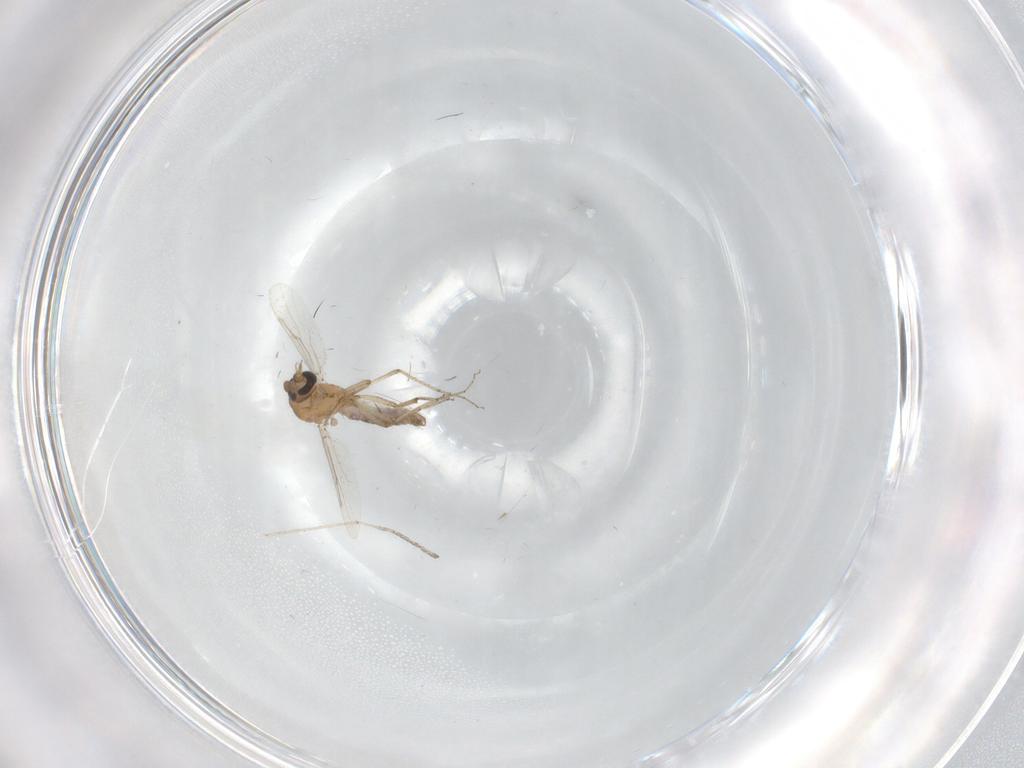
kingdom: Animalia
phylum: Arthropoda
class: Insecta
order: Diptera
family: Ceratopogonidae
